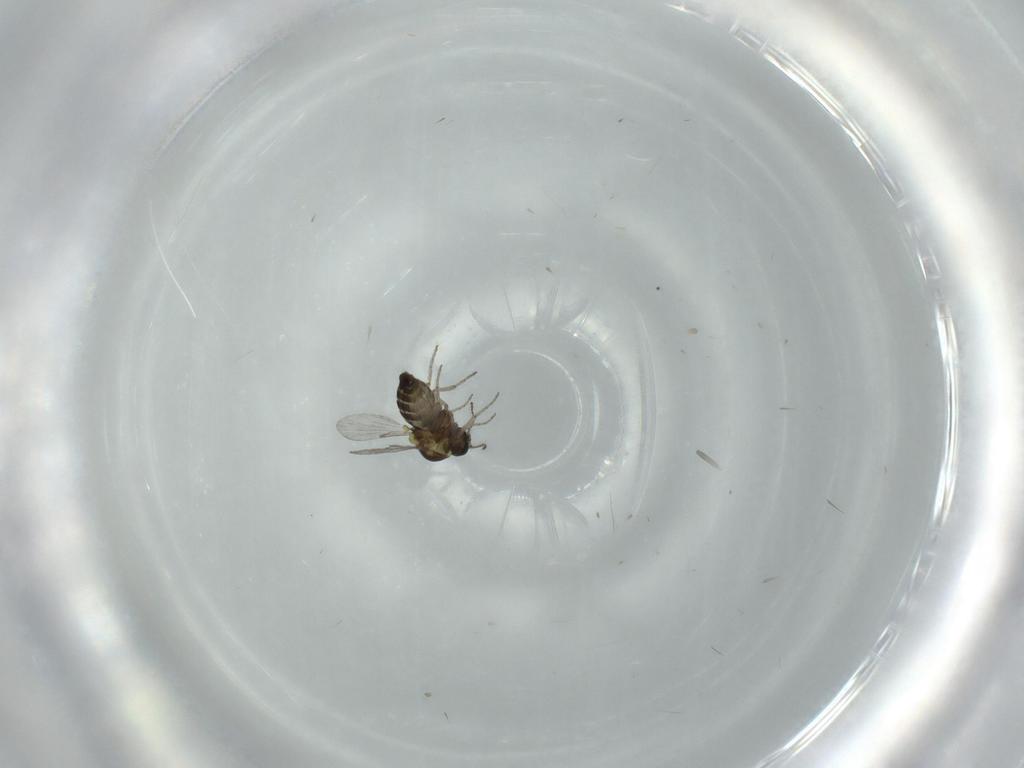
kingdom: Animalia
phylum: Arthropoda
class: Insecta
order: Diptera
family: Ceratopogonidae
